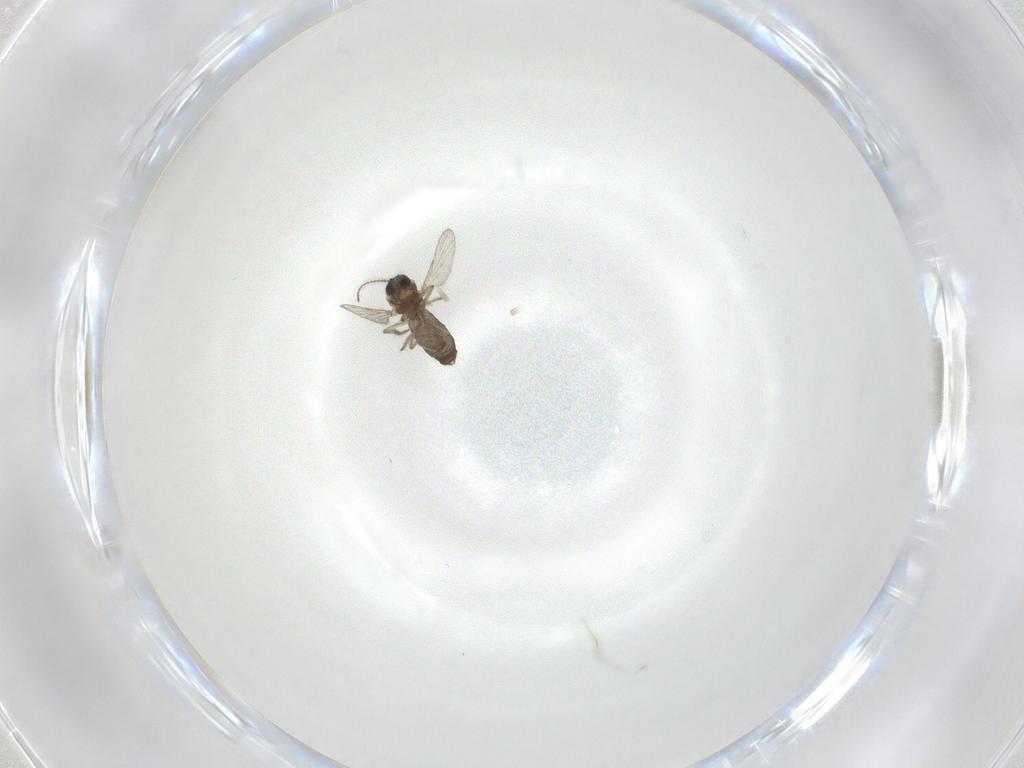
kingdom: Animalia
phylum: Arthropoda
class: Insecta
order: Diptera
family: Ceratopogonidae
